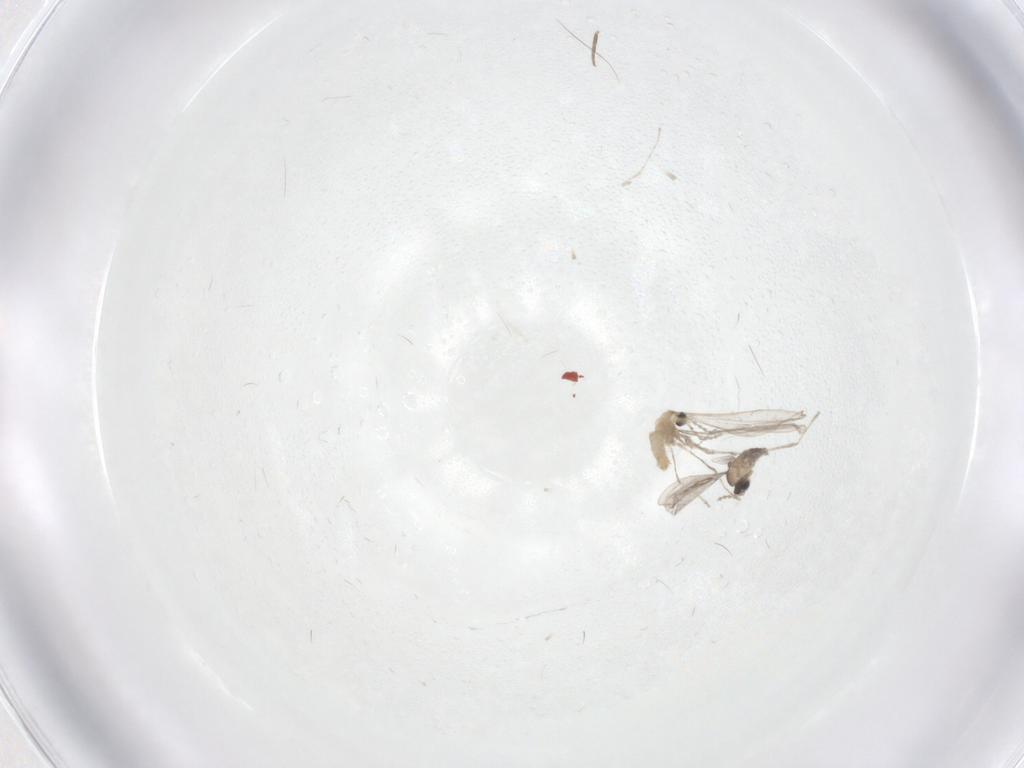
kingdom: Animalia
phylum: Arthropoda
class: Insecta
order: Diptera
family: Cecidomyiidae
